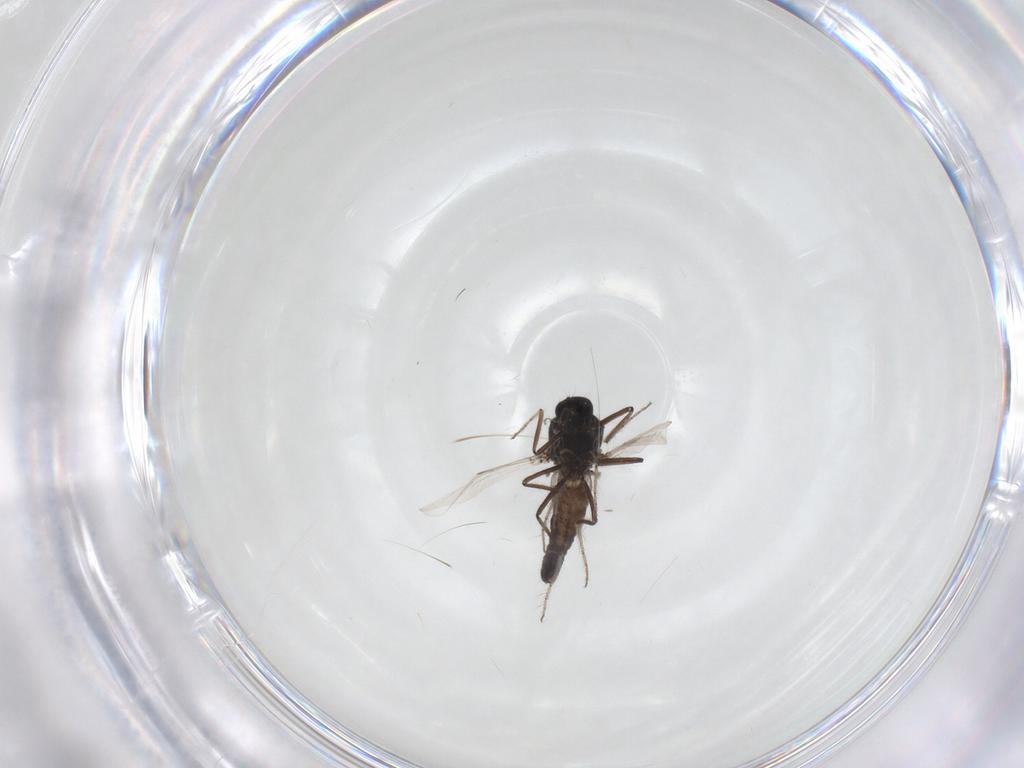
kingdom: Animalia
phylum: Arthropoda
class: Insecta
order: Diptera
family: Ceratopogonidae
